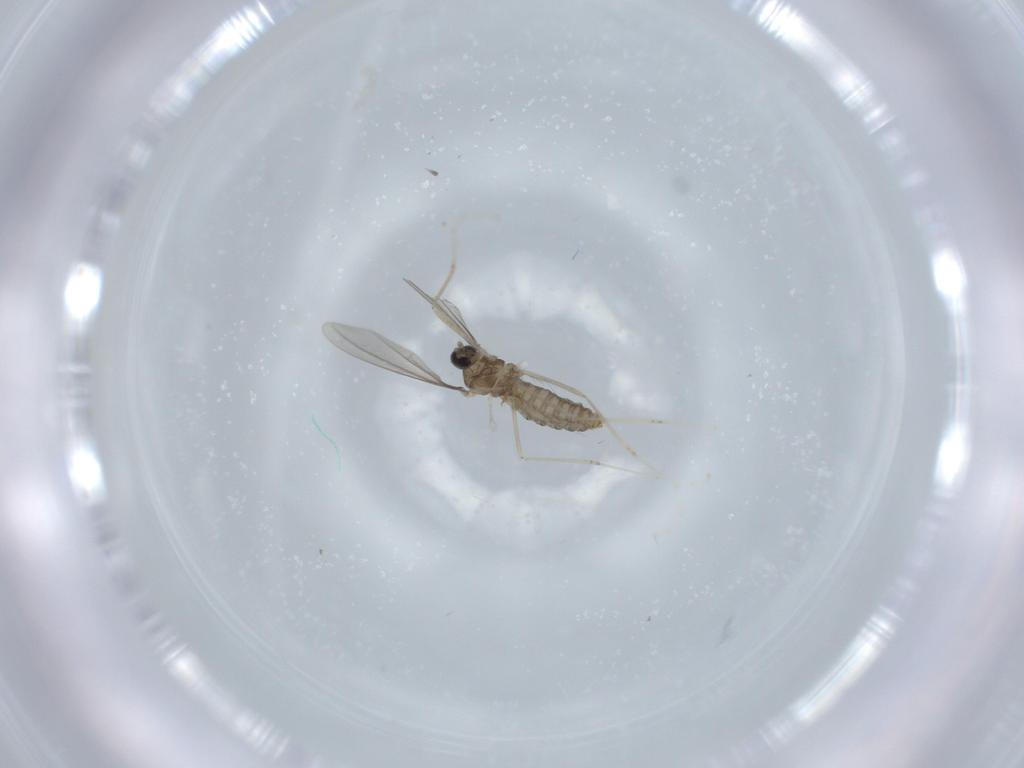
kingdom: Animalia
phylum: Arthropoda
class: Insecta
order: Diptera
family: Cecidomyiidae
